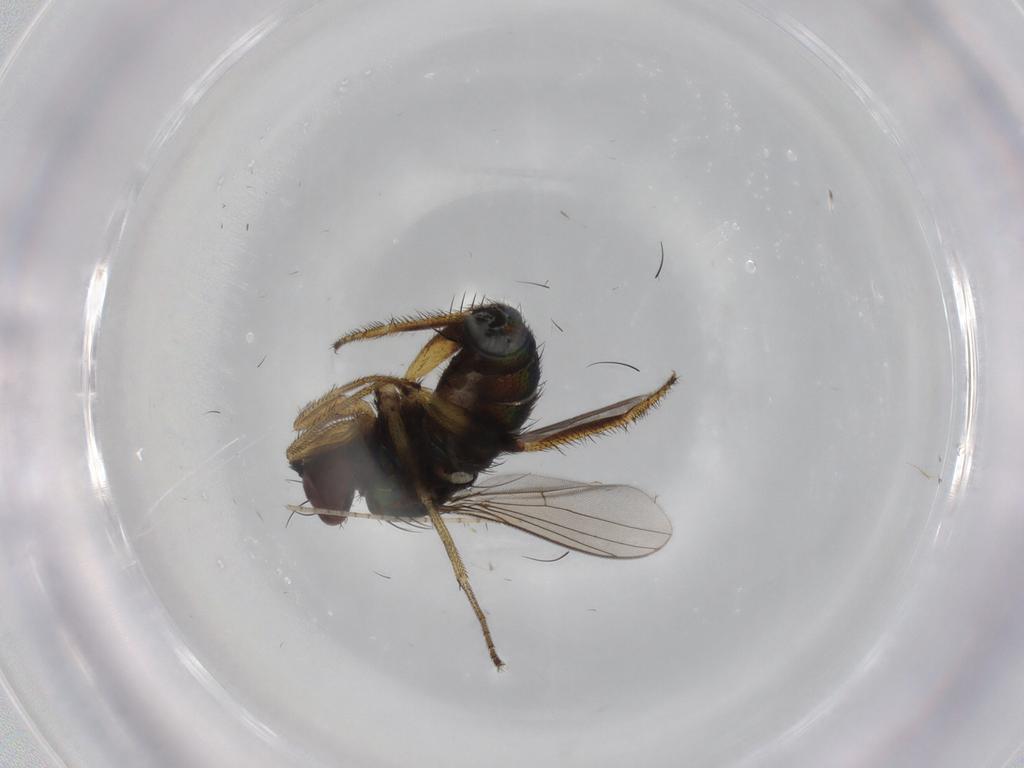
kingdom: Animalia
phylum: Arthropoda
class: Insecta
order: Diptera
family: Dolichopodidae
